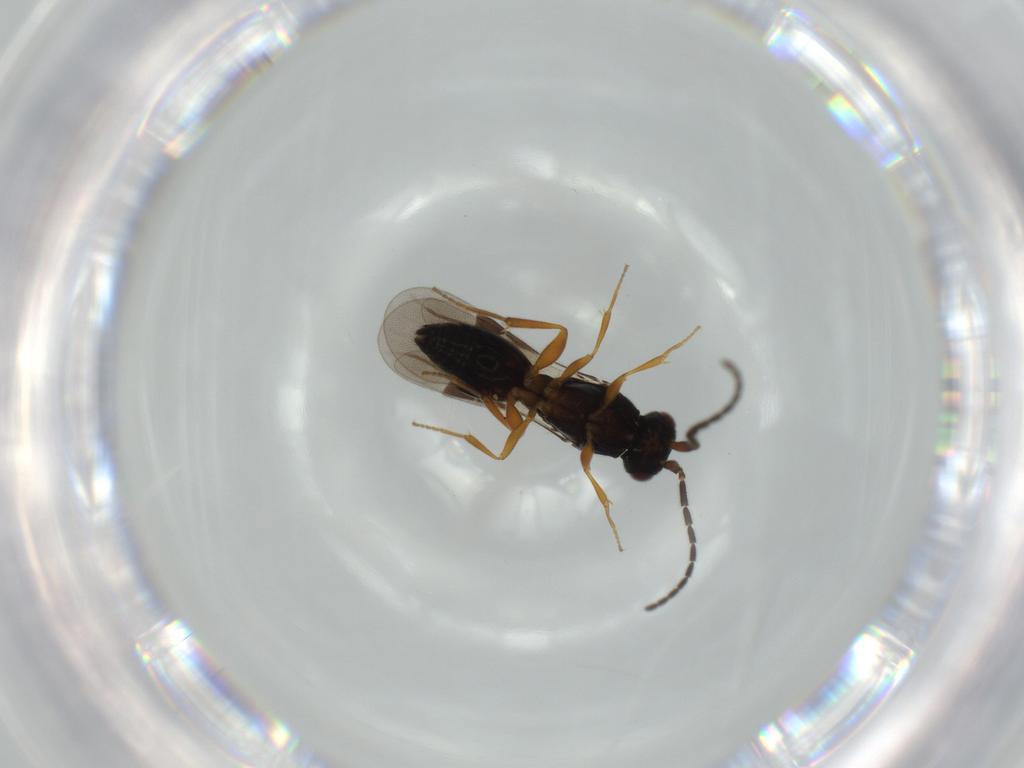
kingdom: Animalia
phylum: Arthropoda
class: Insecta
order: Hymenoptera
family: Megaspilidae
